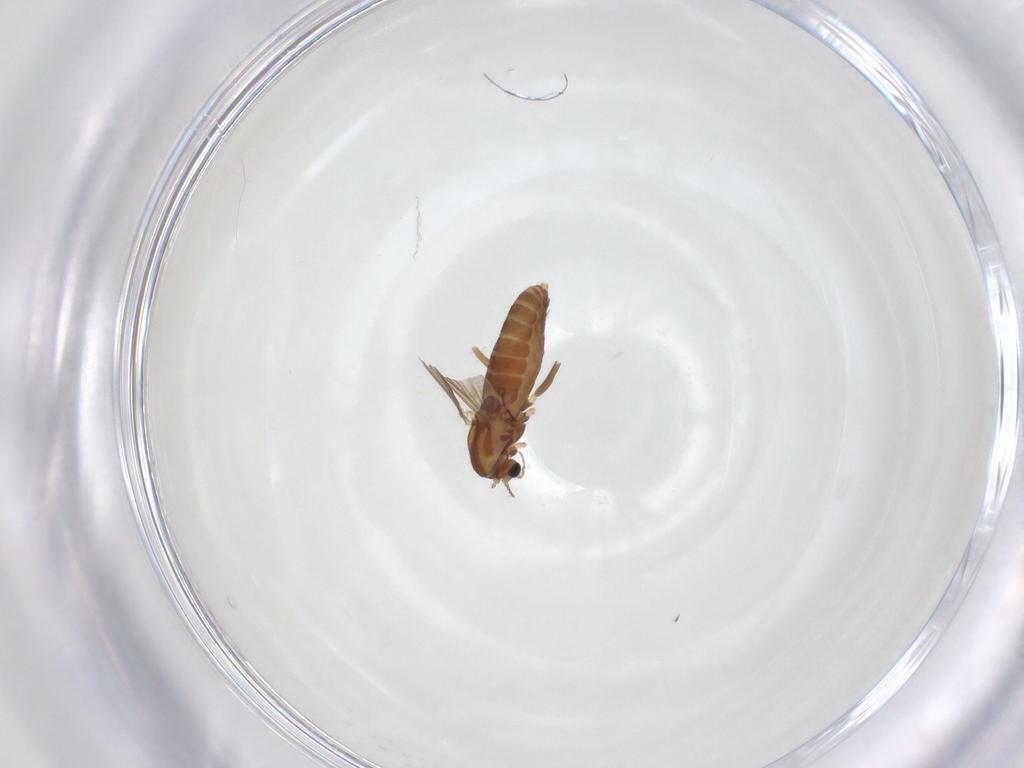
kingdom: Animalia
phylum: Arthropoda
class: Insecta
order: Diptera
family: Chironomidae
